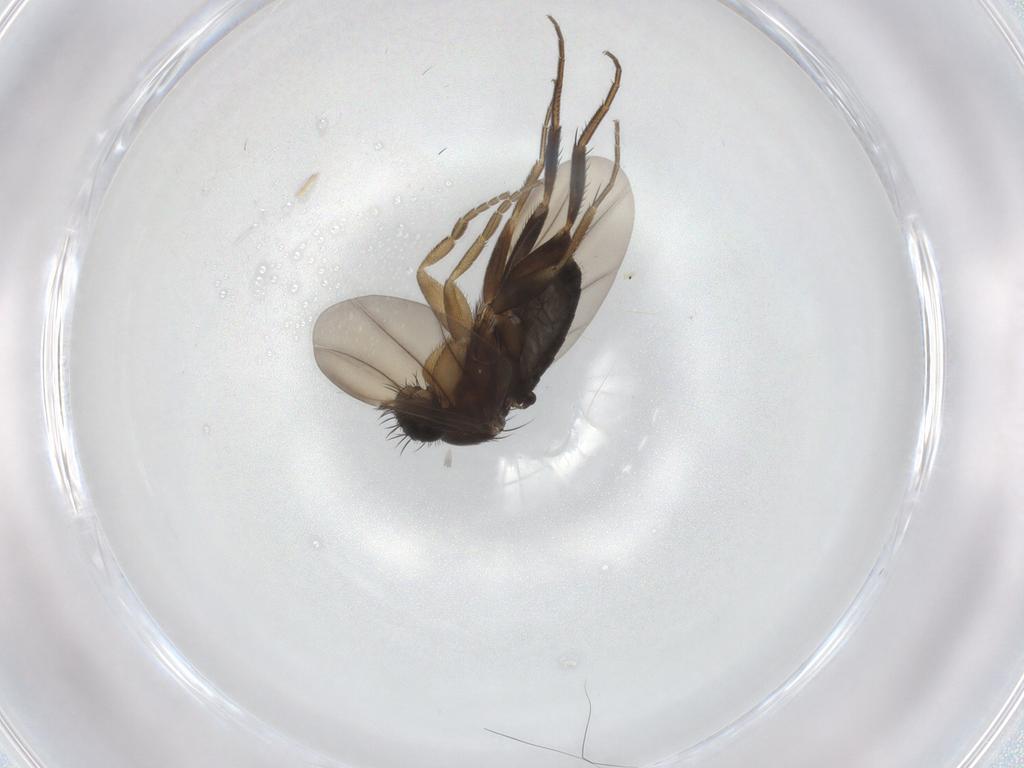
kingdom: Animalia
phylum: Arthropoda
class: Insecta
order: Diptera
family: Phoridae
